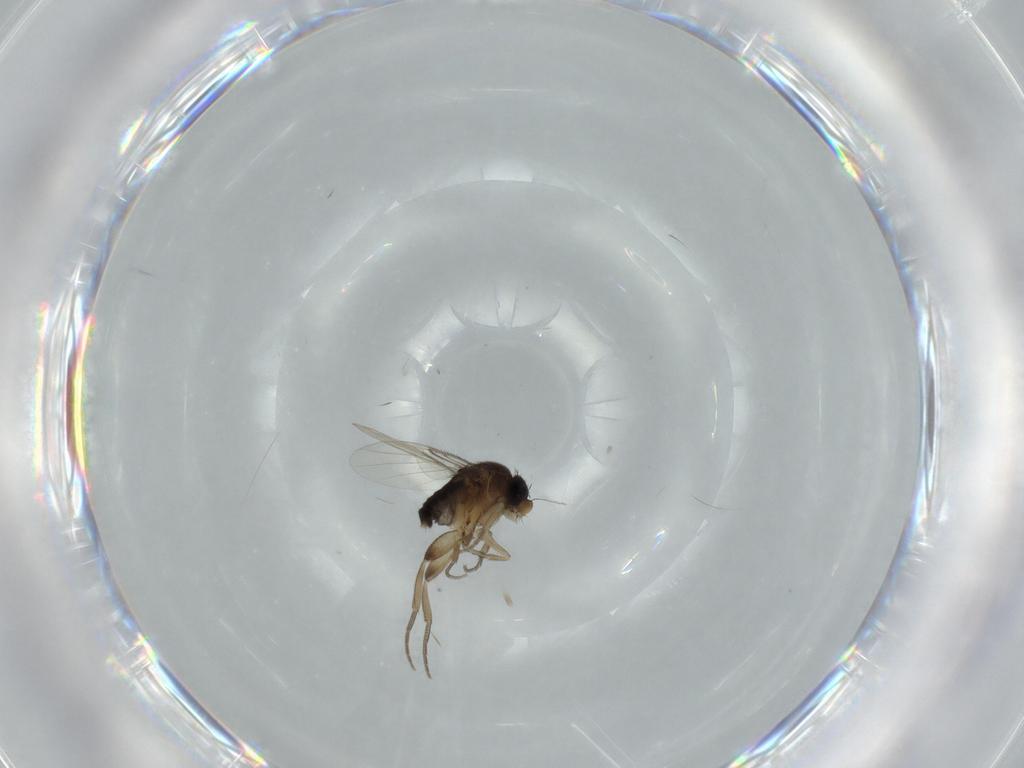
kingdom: Animalia
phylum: Arthropoda
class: Insecta
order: Diptera
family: Phoridae
